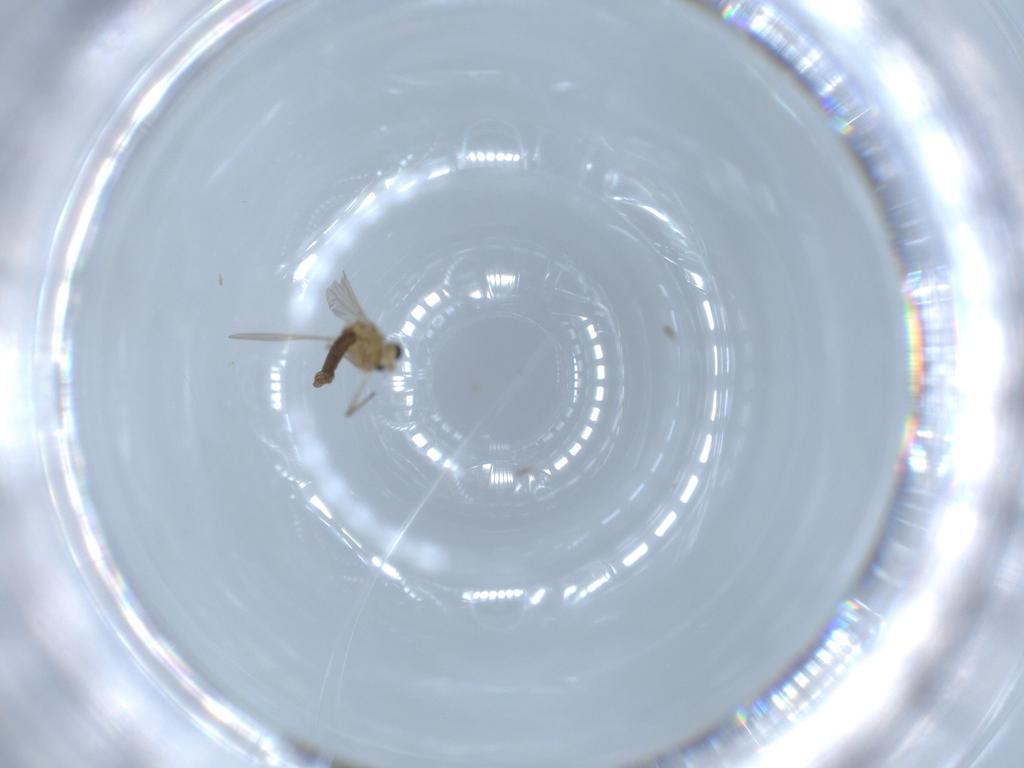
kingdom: Animalia
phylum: Arthropoda
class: Insecta
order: Diptera
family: Chironomidae
